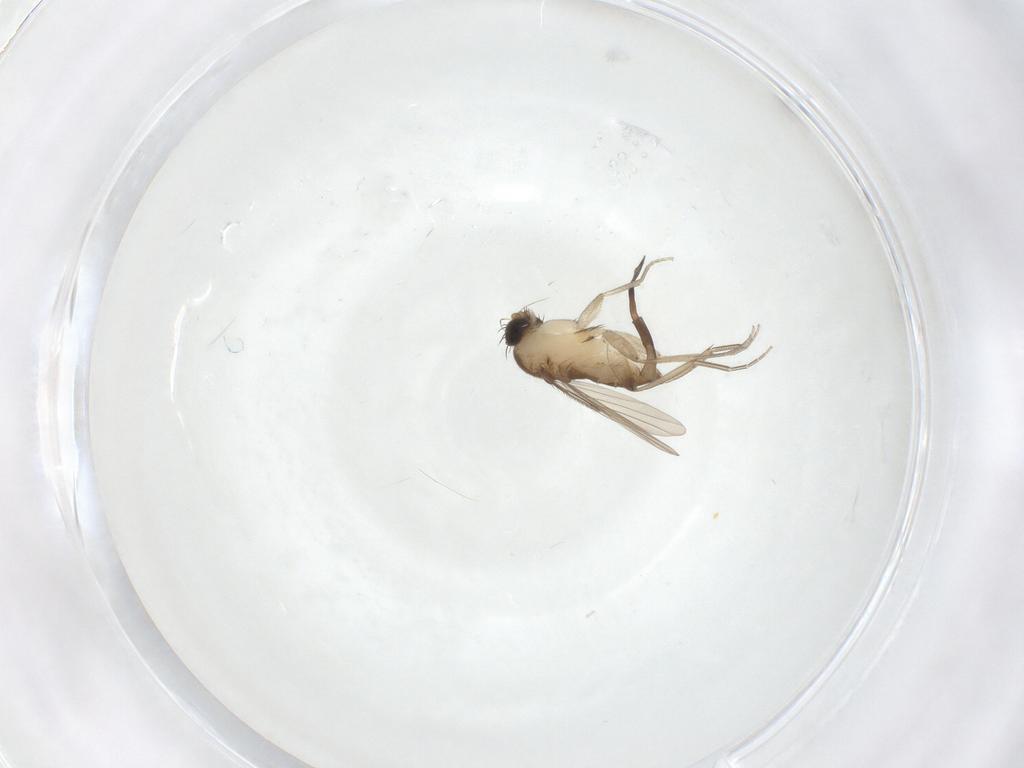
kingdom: Animalia
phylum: Arthropoda
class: Insecta
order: Diptera
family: Phoridae
